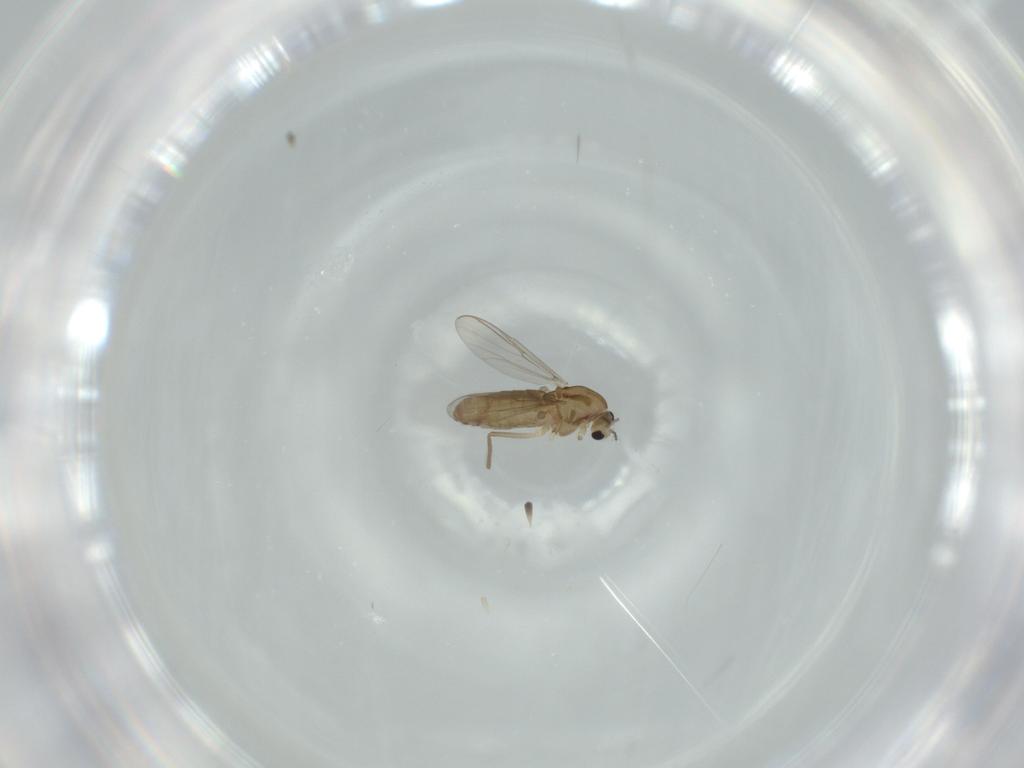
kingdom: Animalia
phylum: Arthropoda
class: Insecta
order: Diptera
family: Chironomidae
